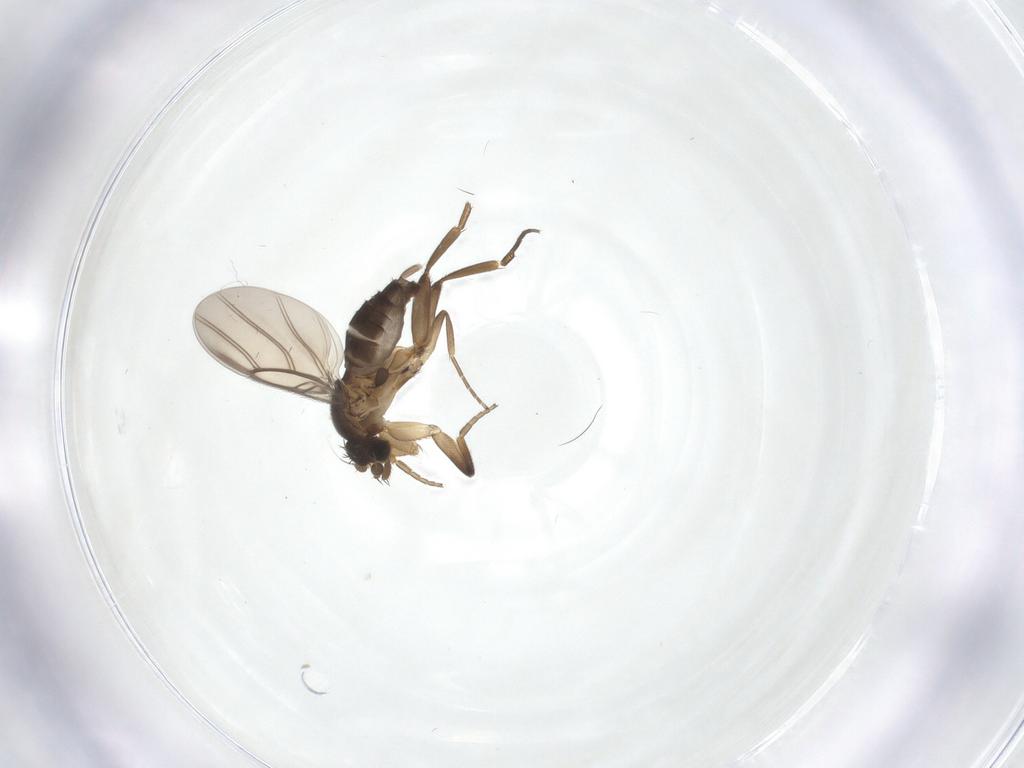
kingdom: Animalia
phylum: Arthropoda
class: Insecta
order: Diptera
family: Phoridae
